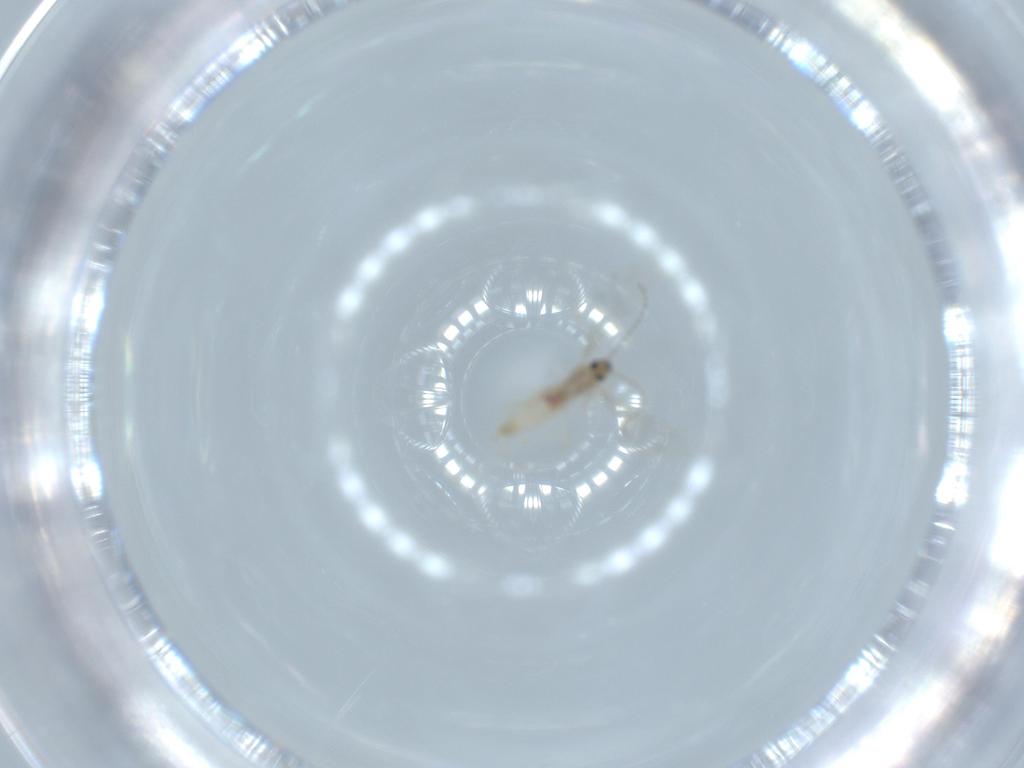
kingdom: Animalia
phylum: Arthropoda
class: Insecta
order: Diptera
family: Cecidomyiidae
